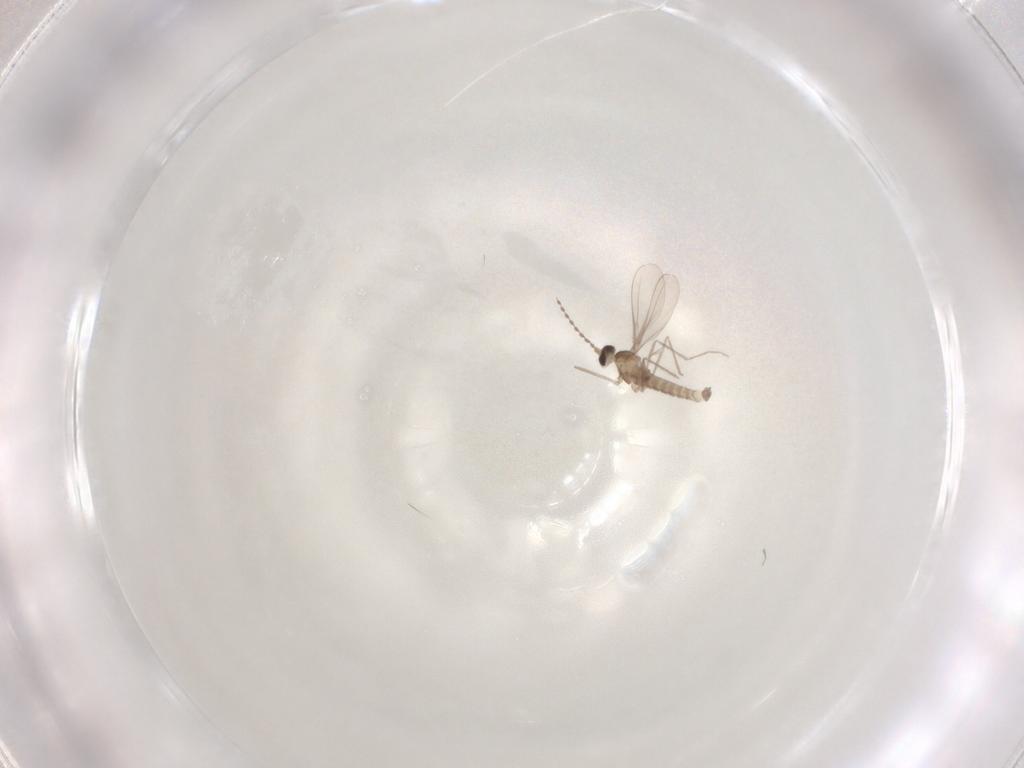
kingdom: Animalia
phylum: Arthropoda
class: Insecta
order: Diptera
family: Cecidomyiidae
